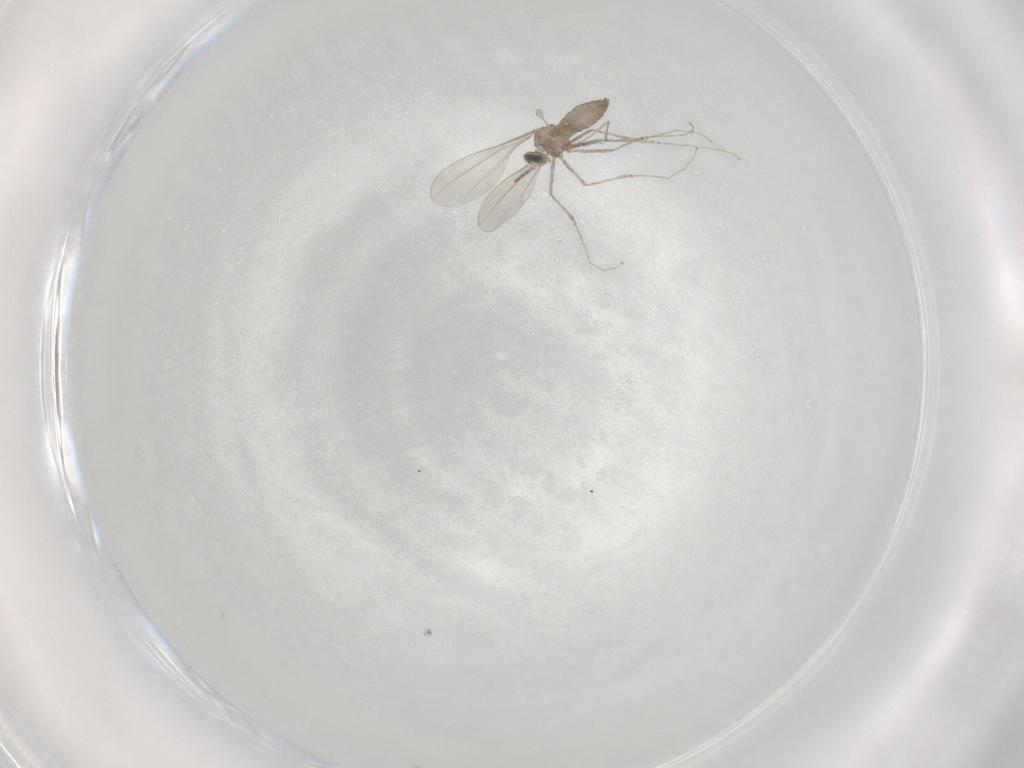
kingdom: Animalia
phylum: Arthropoda
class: Insecta
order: Diptera
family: Cecidomyiidae
